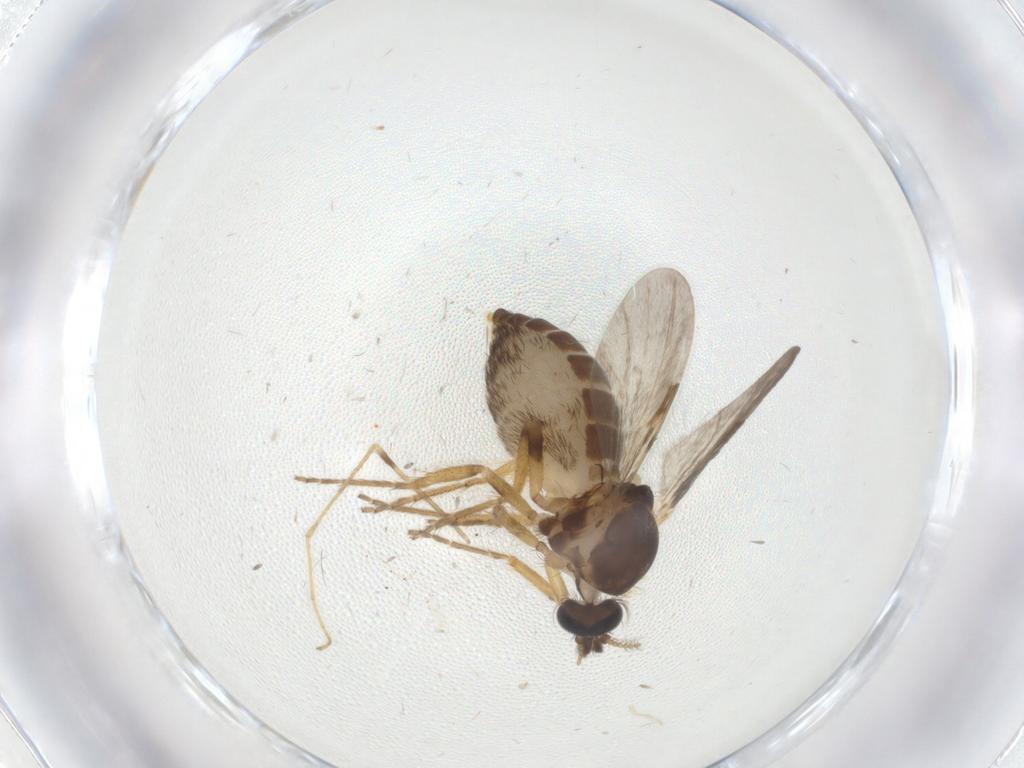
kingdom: Animalia
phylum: Arthropoda
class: Insecta
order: Diptera
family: Ceratopogonidae
